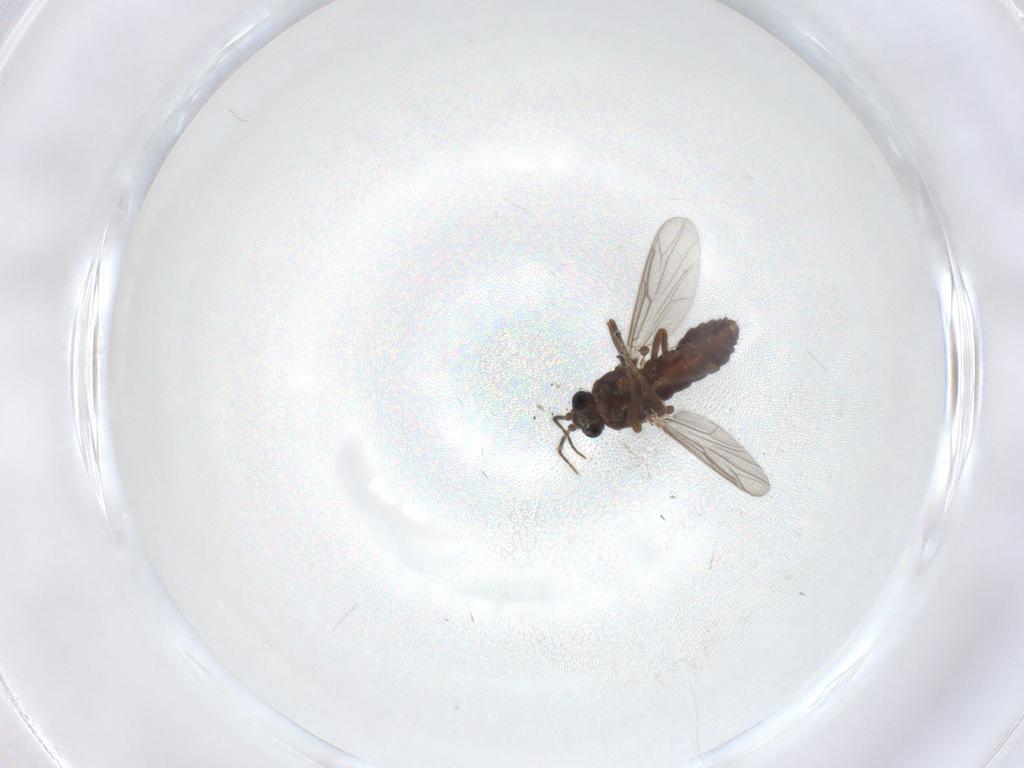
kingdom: Animalia
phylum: Arthropoda
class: Insecta
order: Diptera
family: Ceratopogonidae
